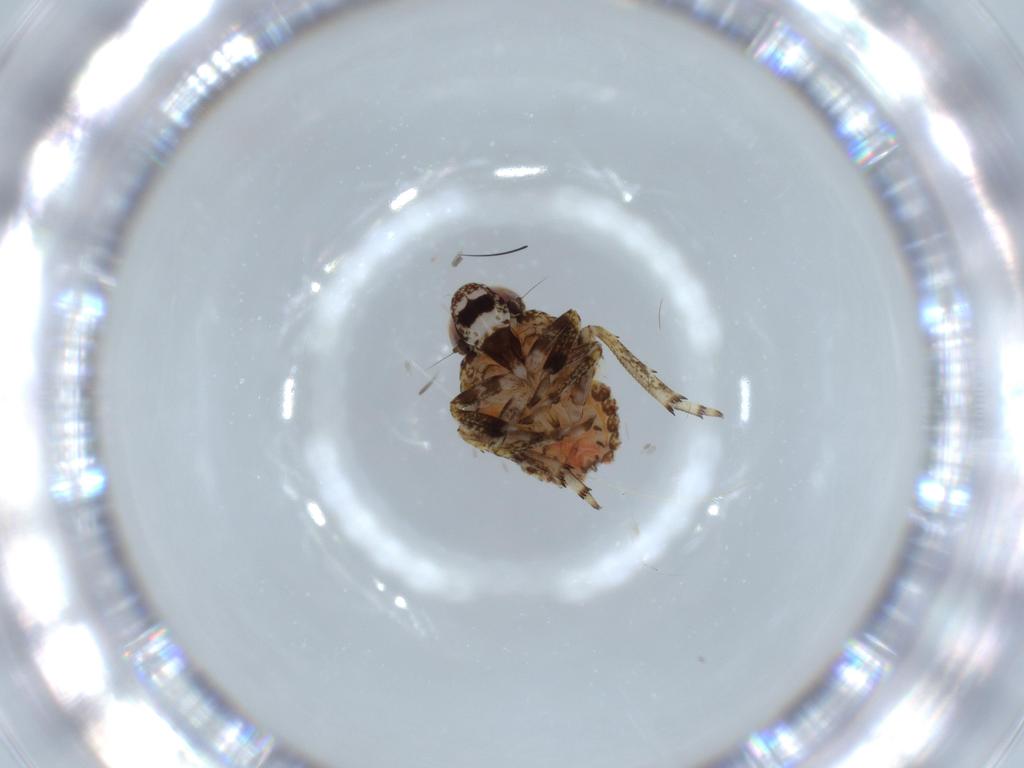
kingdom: Animalia
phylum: Arthropoda
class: Insecta
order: Hemiptera
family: Issidae
